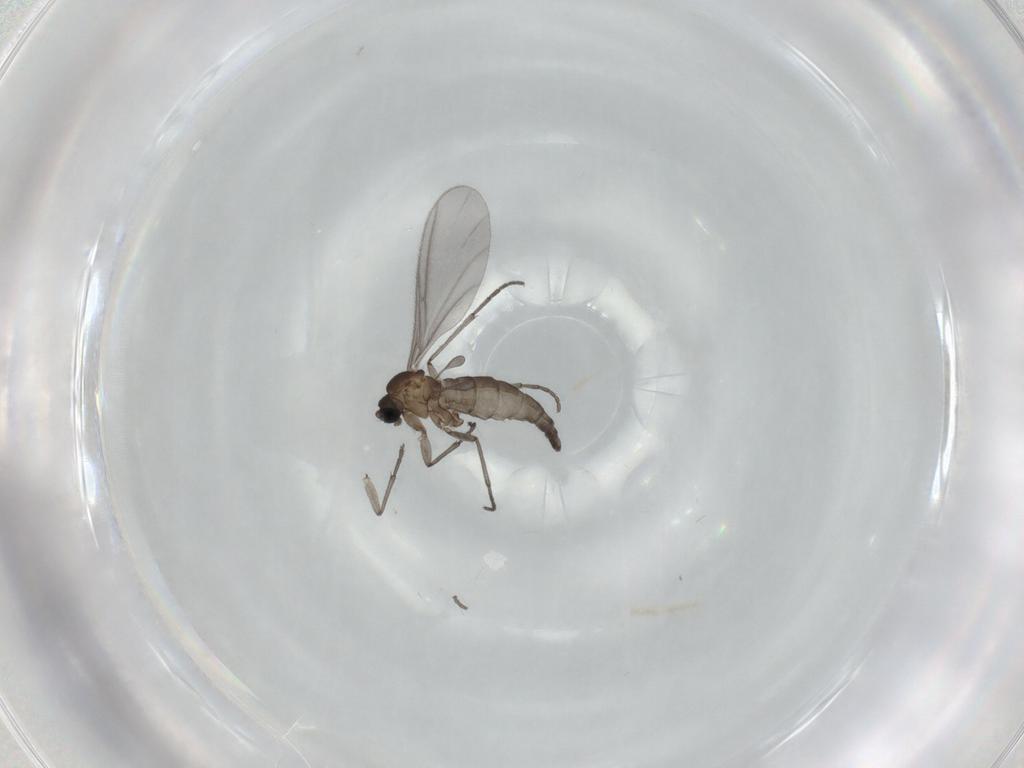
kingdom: Animalia
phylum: Arthropoda
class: Insecta
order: Diptera
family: Sciaridae
